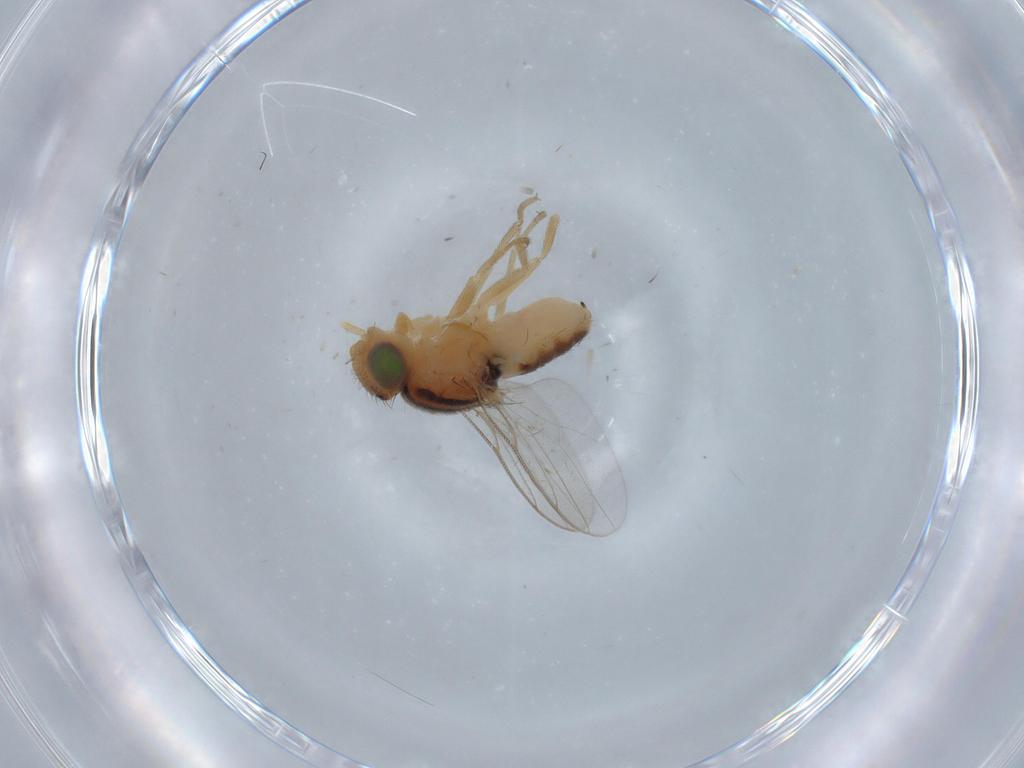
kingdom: Animalia
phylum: Arthropoda
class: Insecta
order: Diptera
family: Chloropidae
